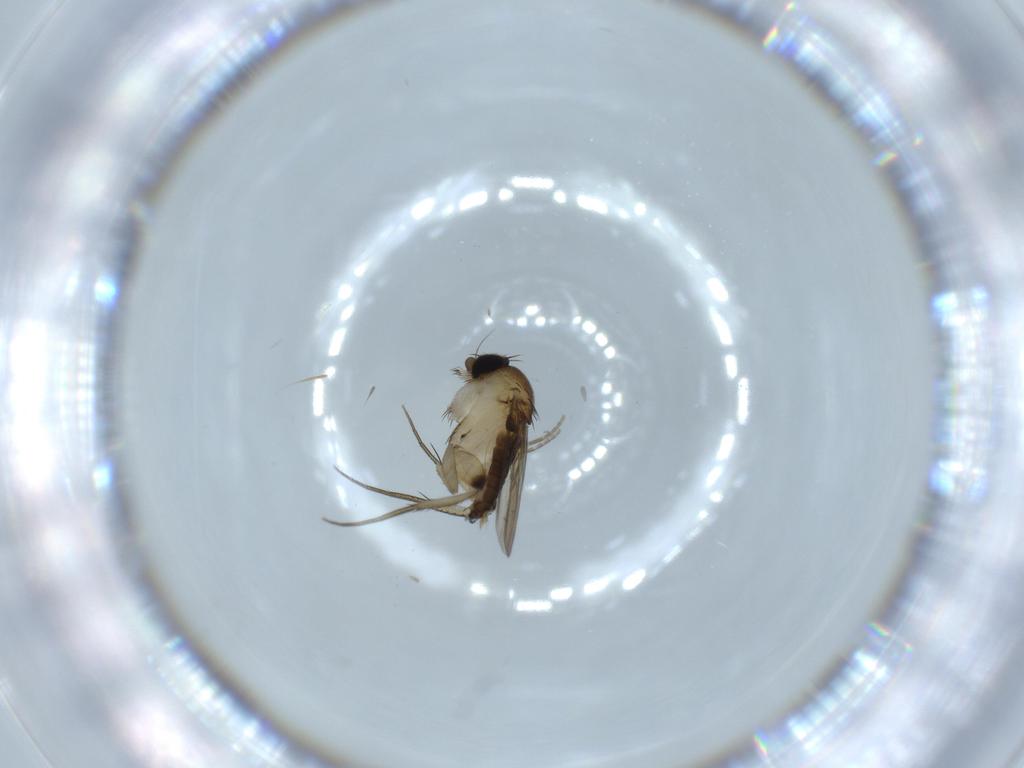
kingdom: Animalia
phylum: Arthropoda
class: Insecta
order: Diptera
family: Phoridae
